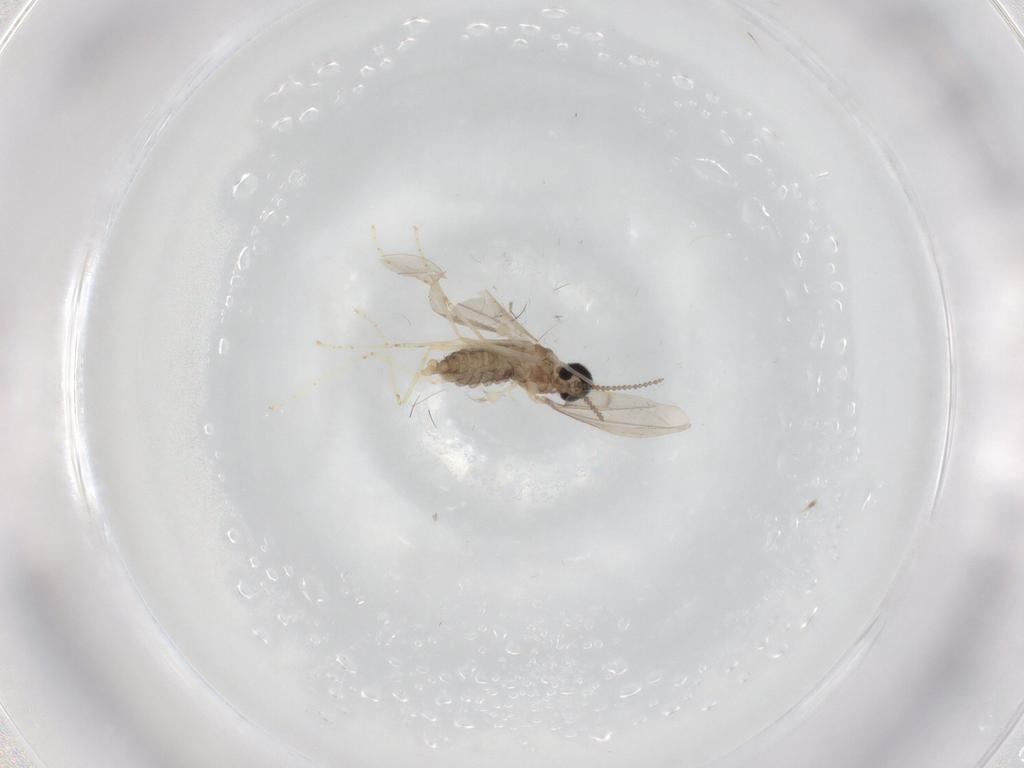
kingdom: Animalia
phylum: Arthropoda
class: Insecta
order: Diptera
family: Cecidomyiidae
